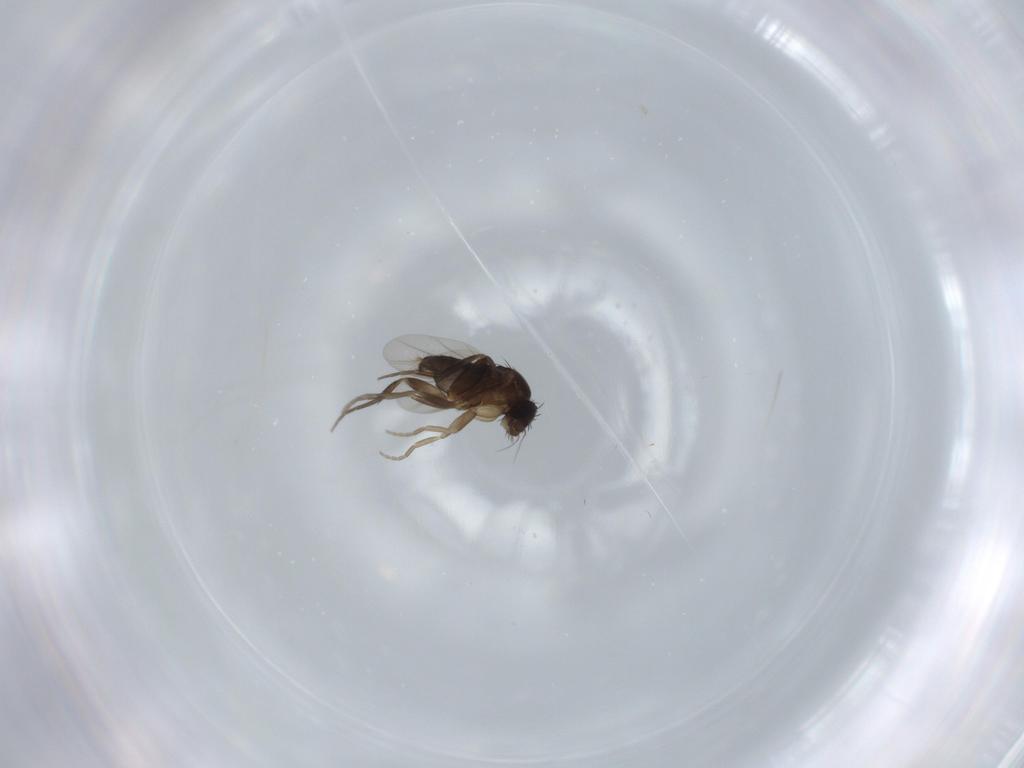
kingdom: Animalia
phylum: Arthropoda
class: Insecta
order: Diptera
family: Phoridae
